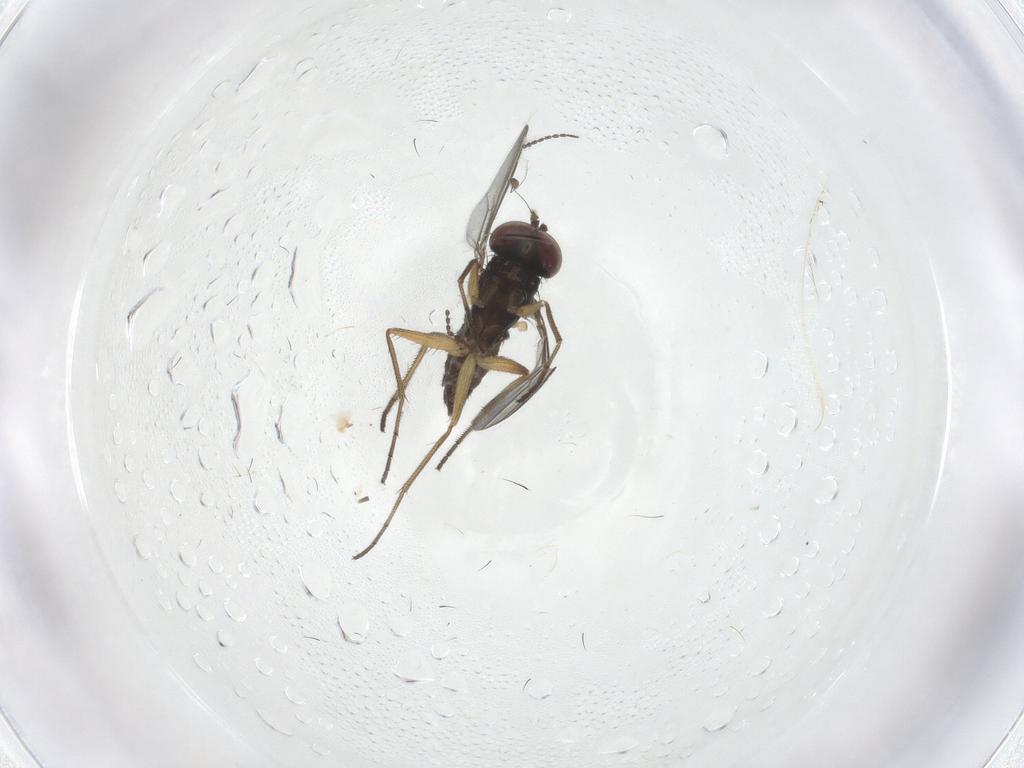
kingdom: Animalia
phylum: Arthropoda
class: Insecta
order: Diptera
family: Dolichopodidae
